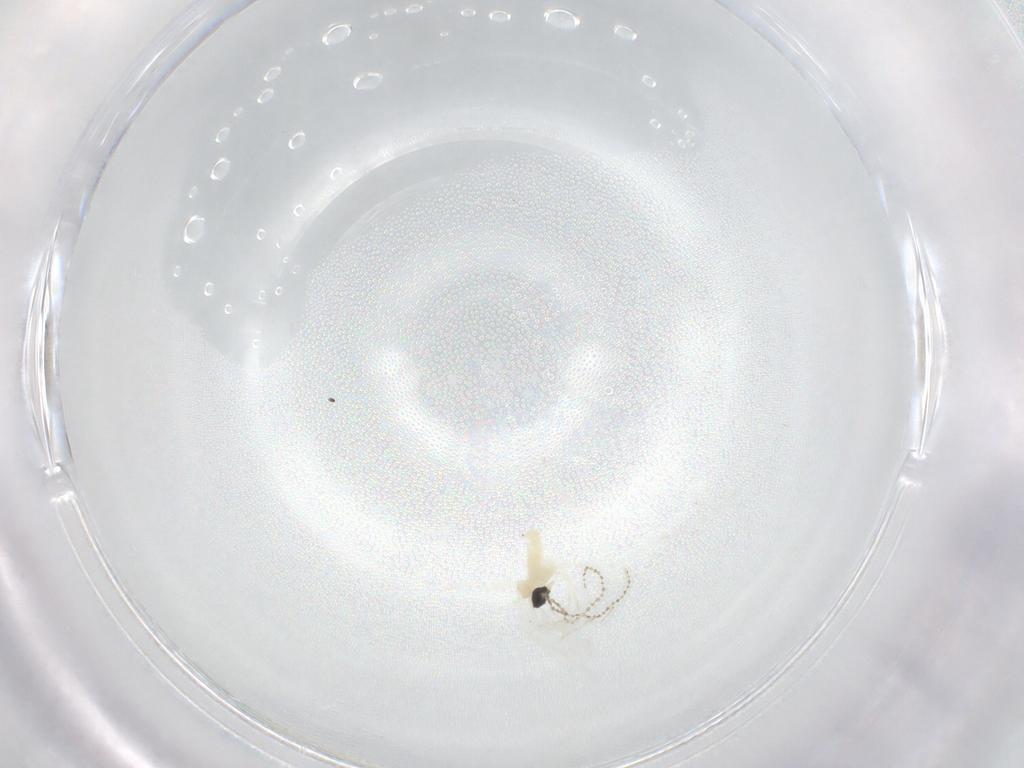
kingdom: Animalia
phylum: Arthropoda
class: Insecta
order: Diptera
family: Cecidomyiidae
